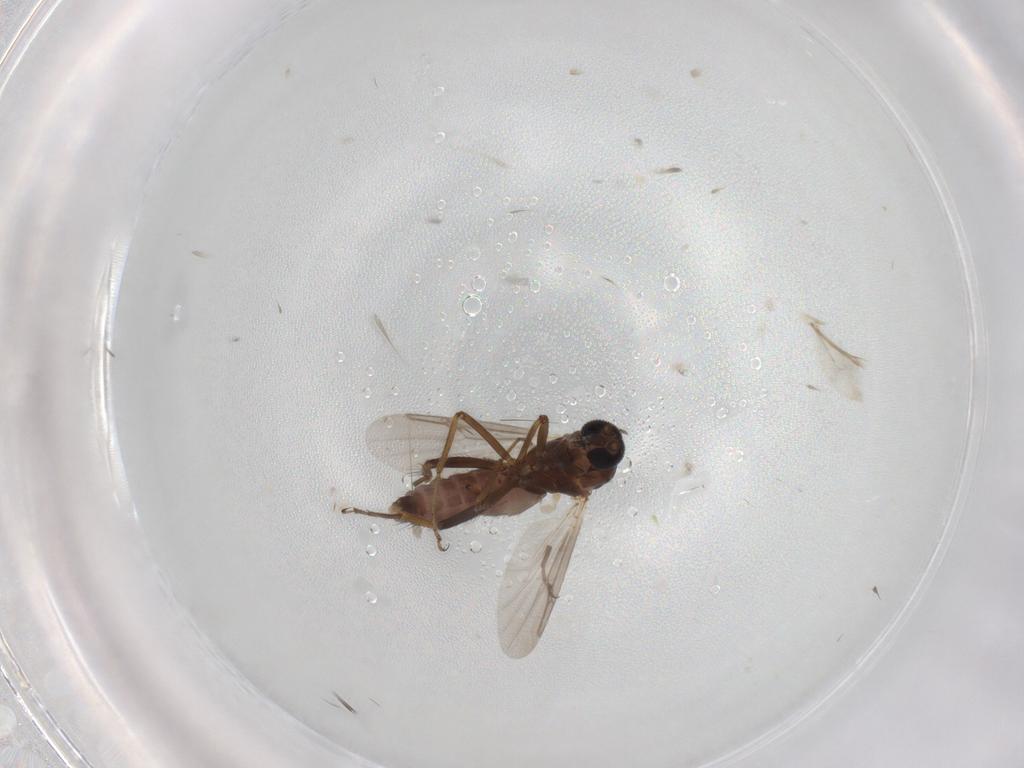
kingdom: Animalia
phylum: Arthropoda
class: Insecta
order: Diptera
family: Ceratopogonidae
